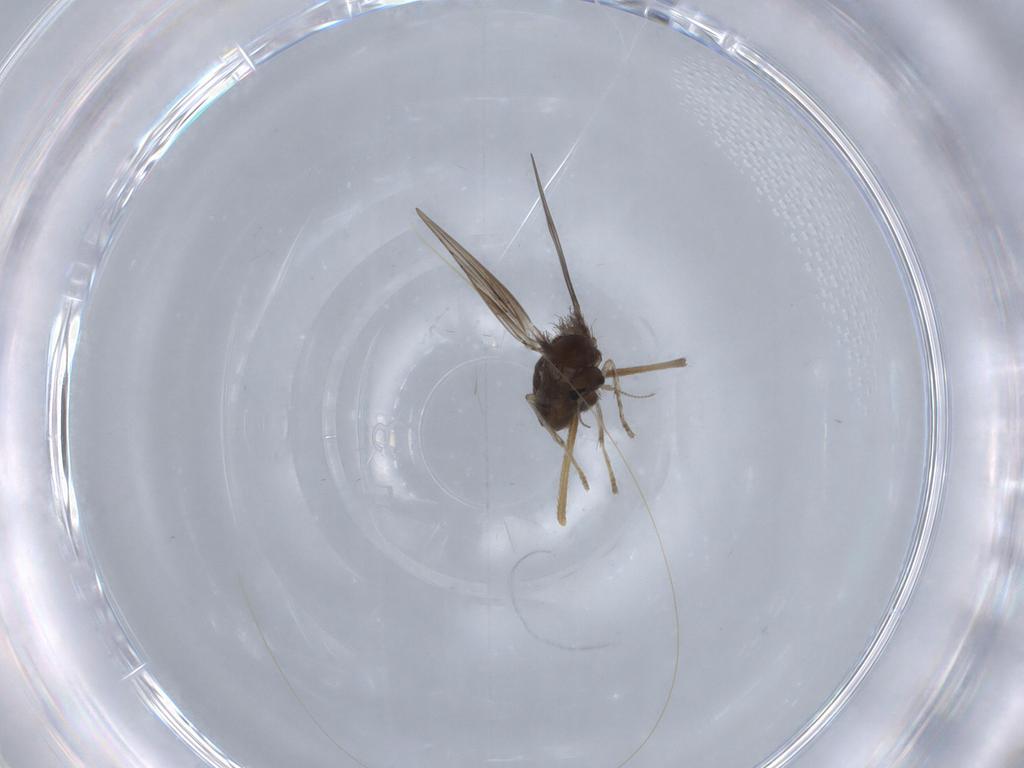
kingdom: Animalia
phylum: Arthropoda
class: Insecta
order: Diptera
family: Psychodidae
